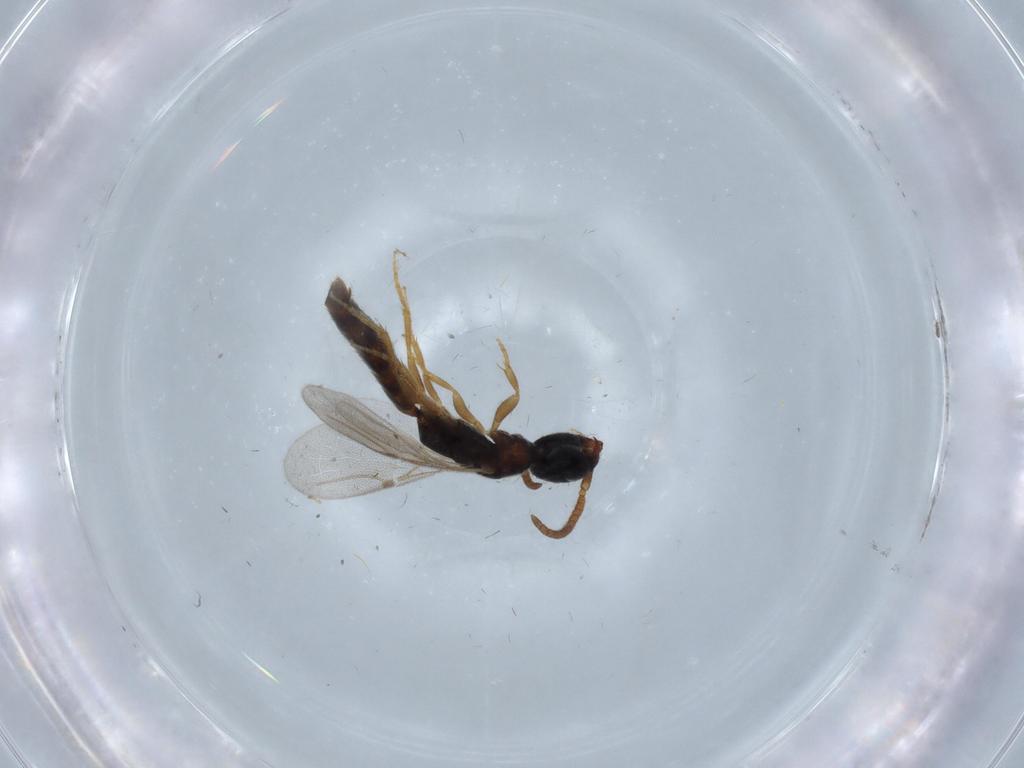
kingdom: Animalia
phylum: Arthropoda
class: Insecta
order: Hymenoptera
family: Bethylidae
